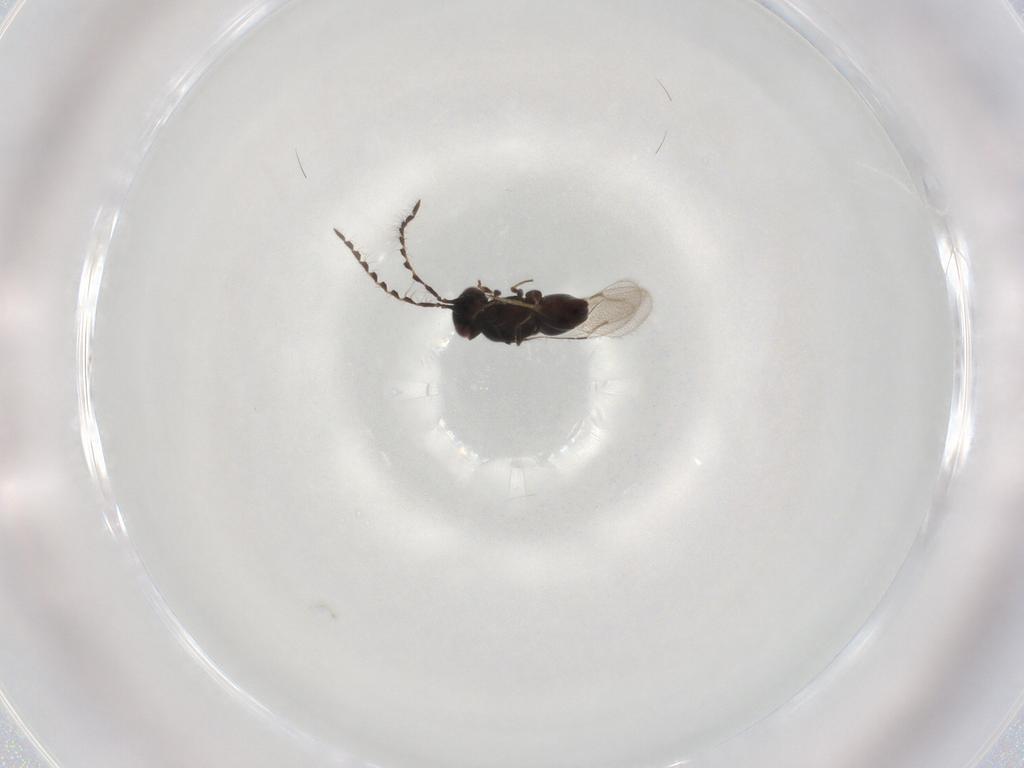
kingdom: Animalia
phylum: Arthropoda
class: Insecta
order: Hymenoptera
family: Ceraphronidae
